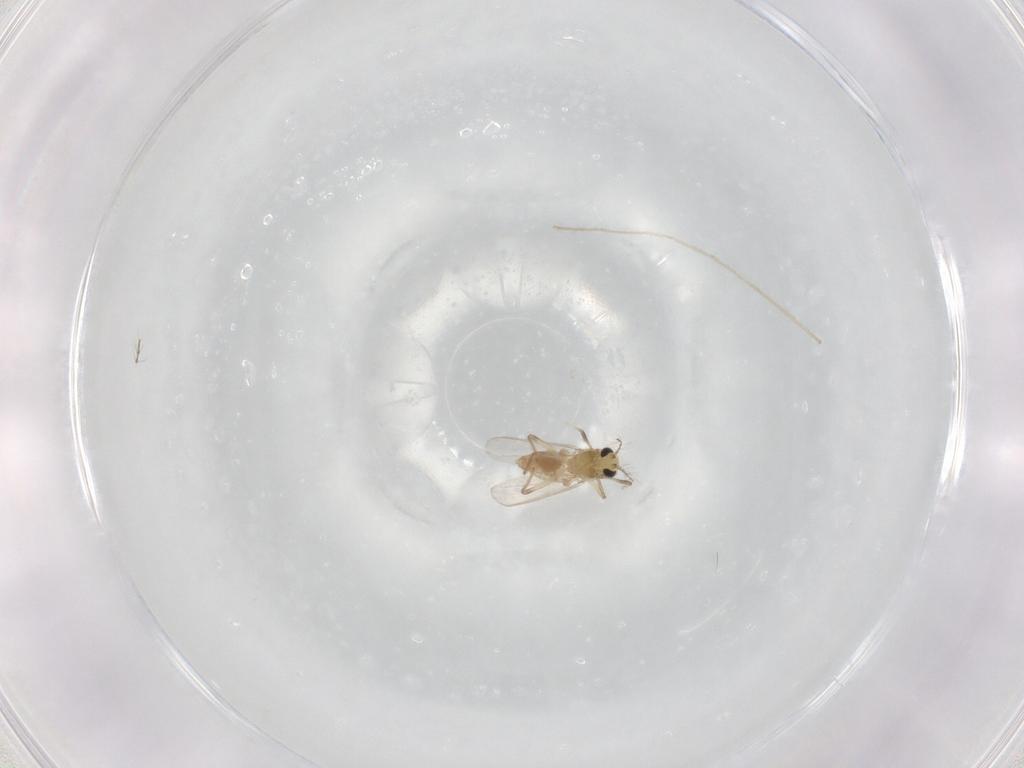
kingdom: Animalia
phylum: Arthropoda
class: Insecta
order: Diptera
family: Chironomidae
